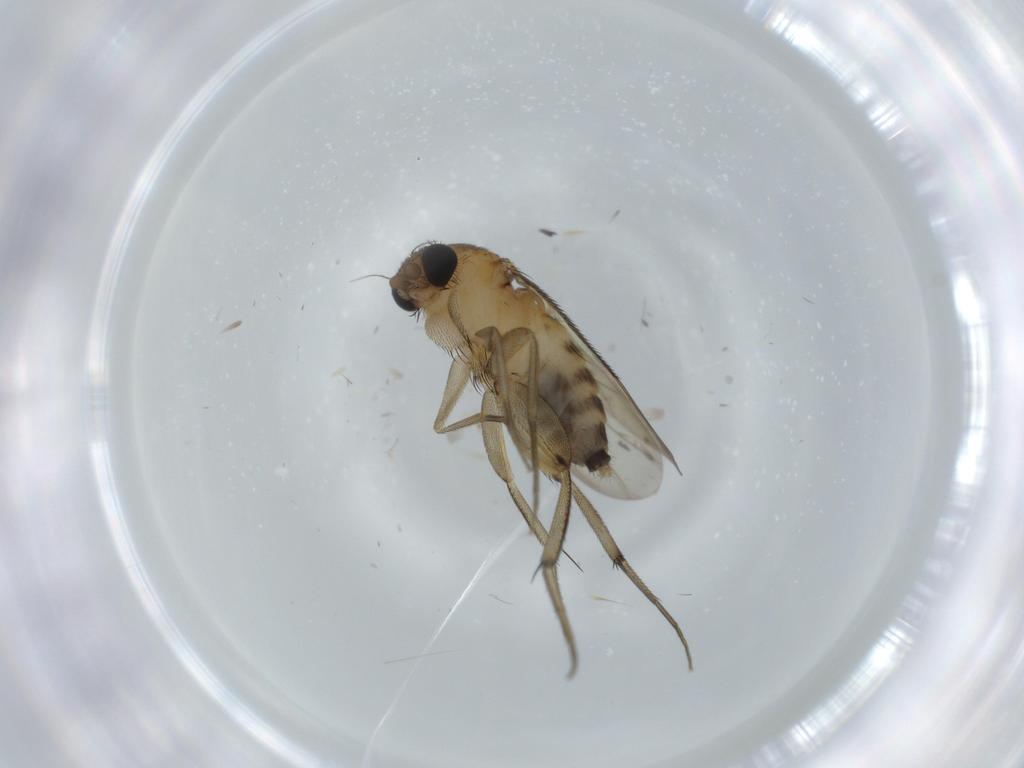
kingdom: Animalia
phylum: Arthropoda
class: Insecta
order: Diptera
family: Phoridae
